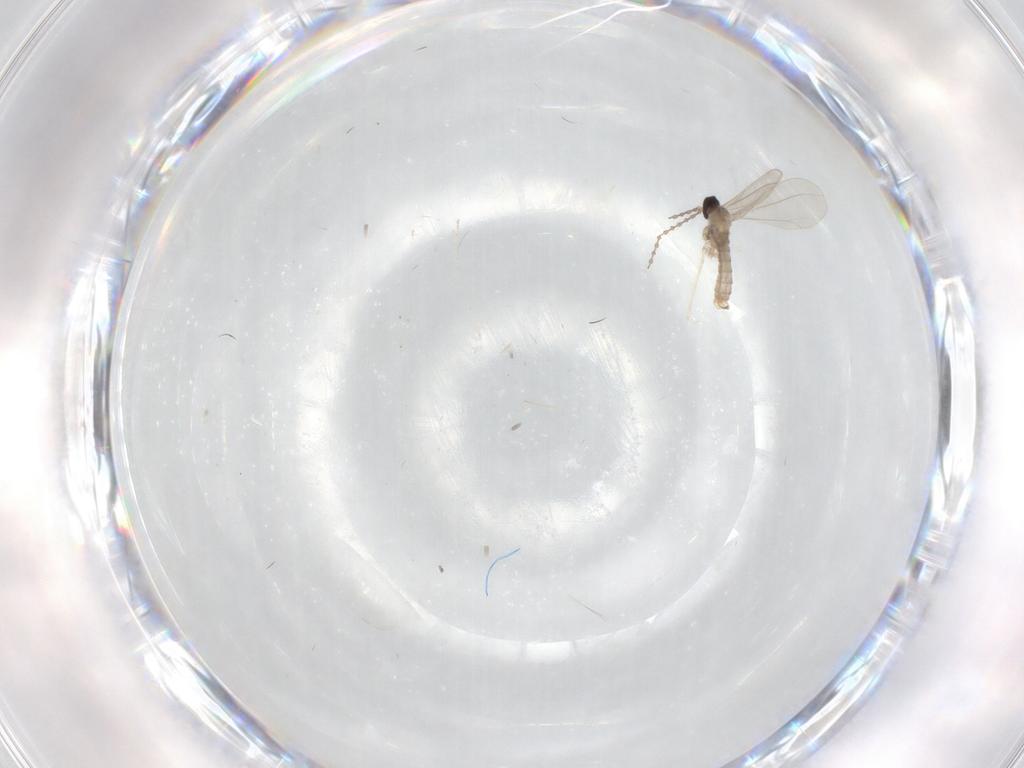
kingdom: Animalia
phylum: Arthropoda
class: Insecta
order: Diptera
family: Cecidomyiidae
